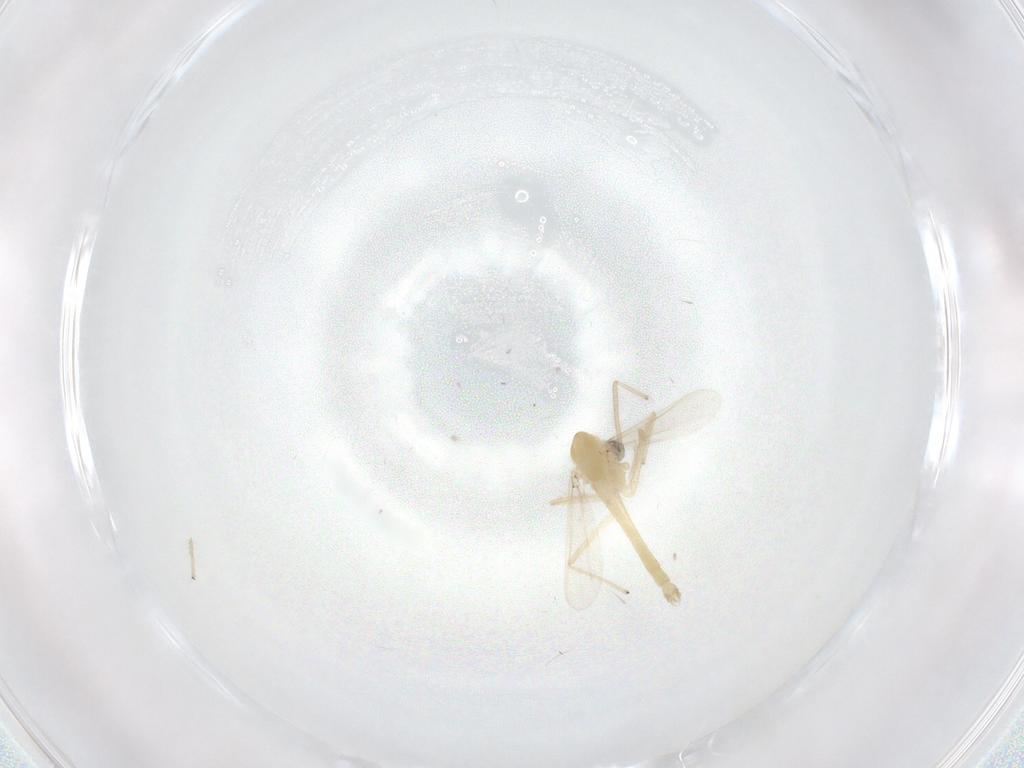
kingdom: Animalia
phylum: Arthropoda
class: Insecta
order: Diptera
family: Chironomidae
